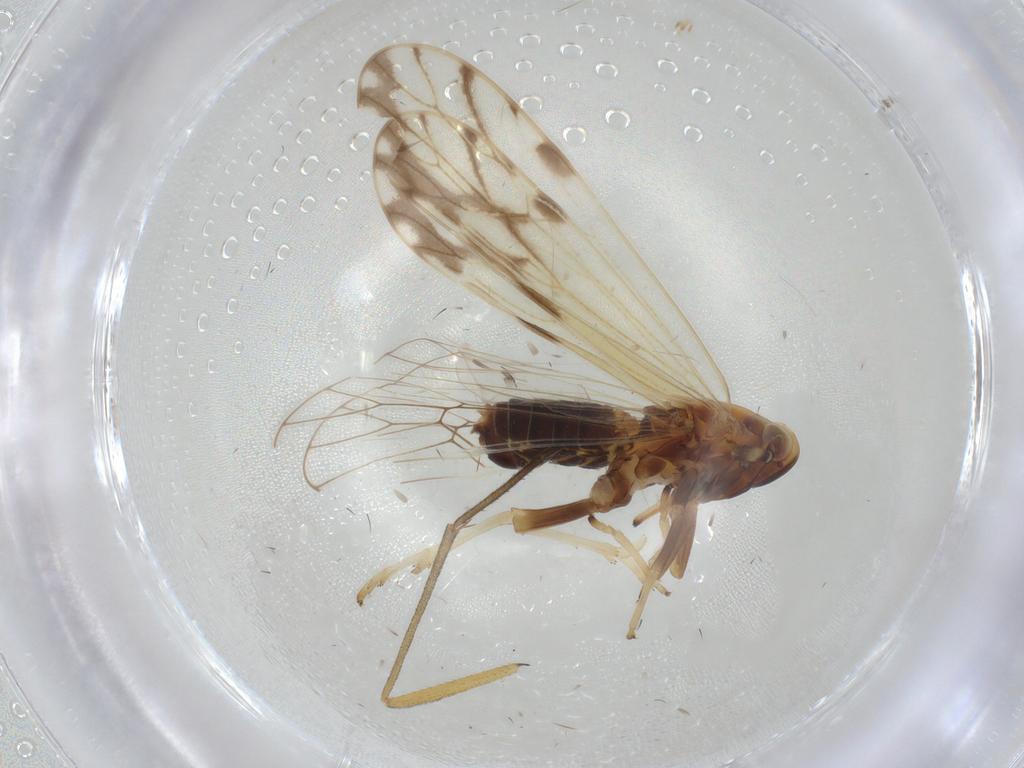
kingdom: Animalia
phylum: Arthropoda
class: Insecta
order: Hemiptera
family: Delphacidae
